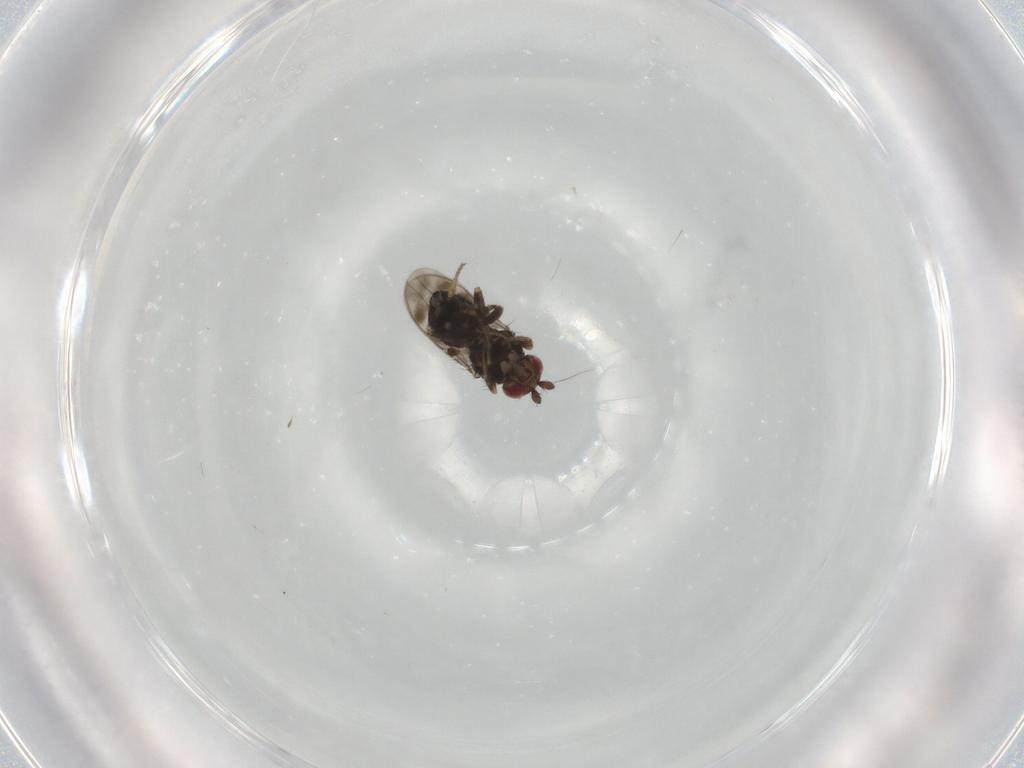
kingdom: Animalia
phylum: Arthropoda
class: Insecta
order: Diptera
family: Sphaeroceridae
